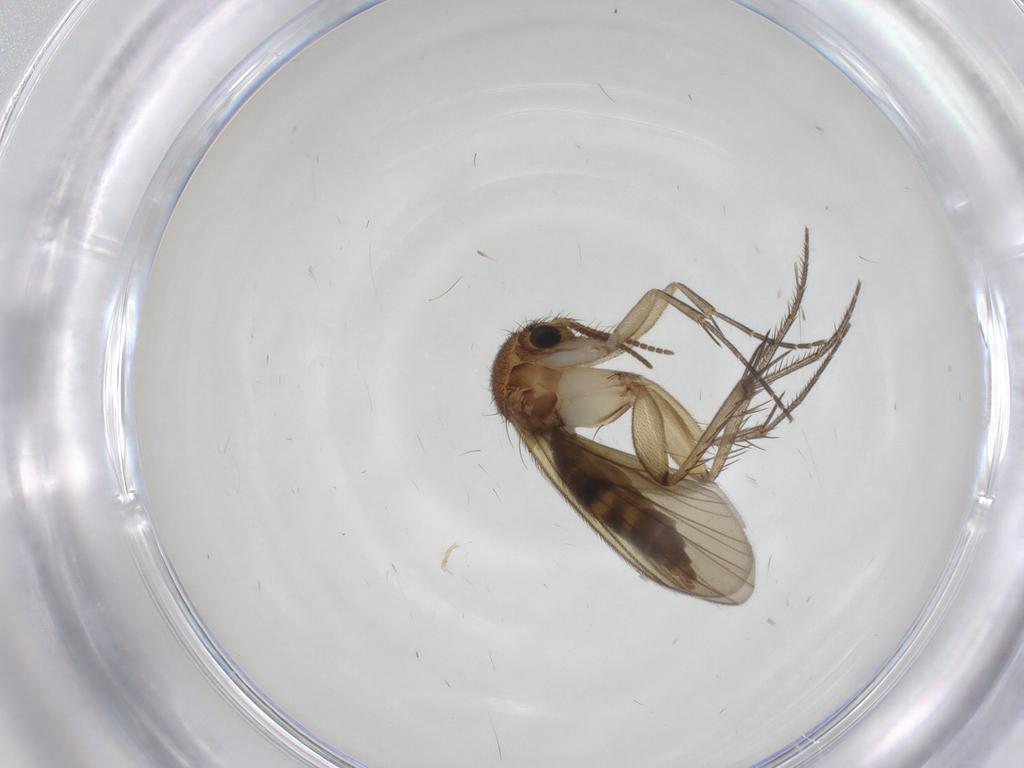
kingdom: Animalia
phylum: Arthropoda
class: Insecta
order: Diptera
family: Mycetophilidae
